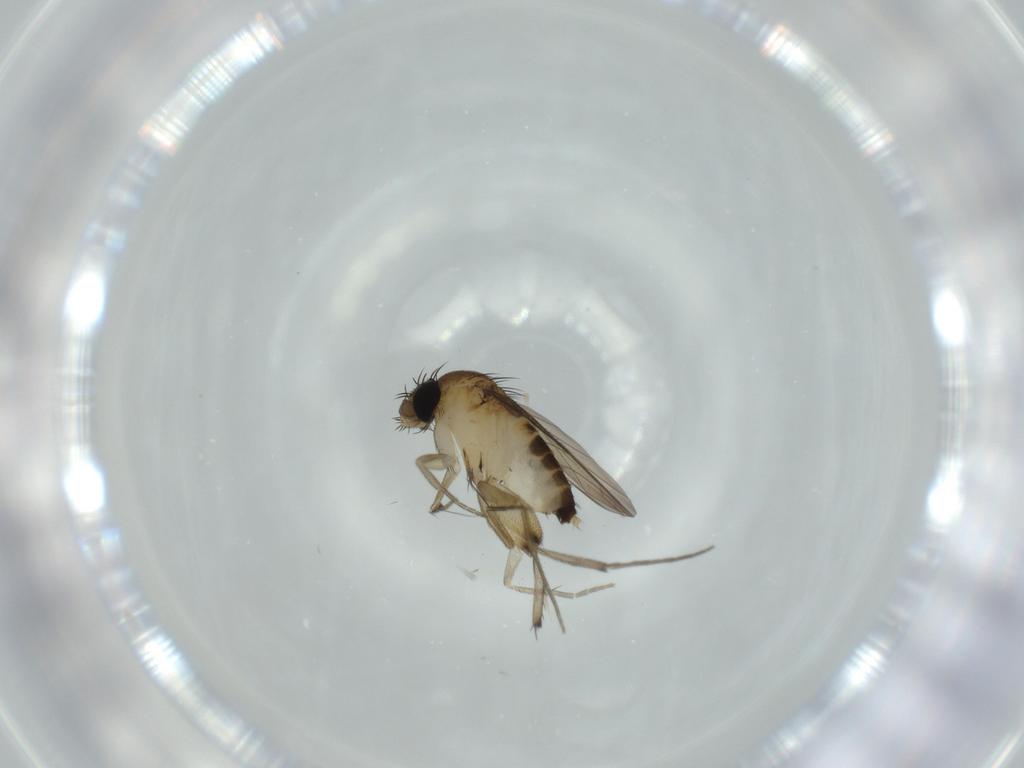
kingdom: Animalia
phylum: Arthropoda
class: Insecta
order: Diptera
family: Phoridae
